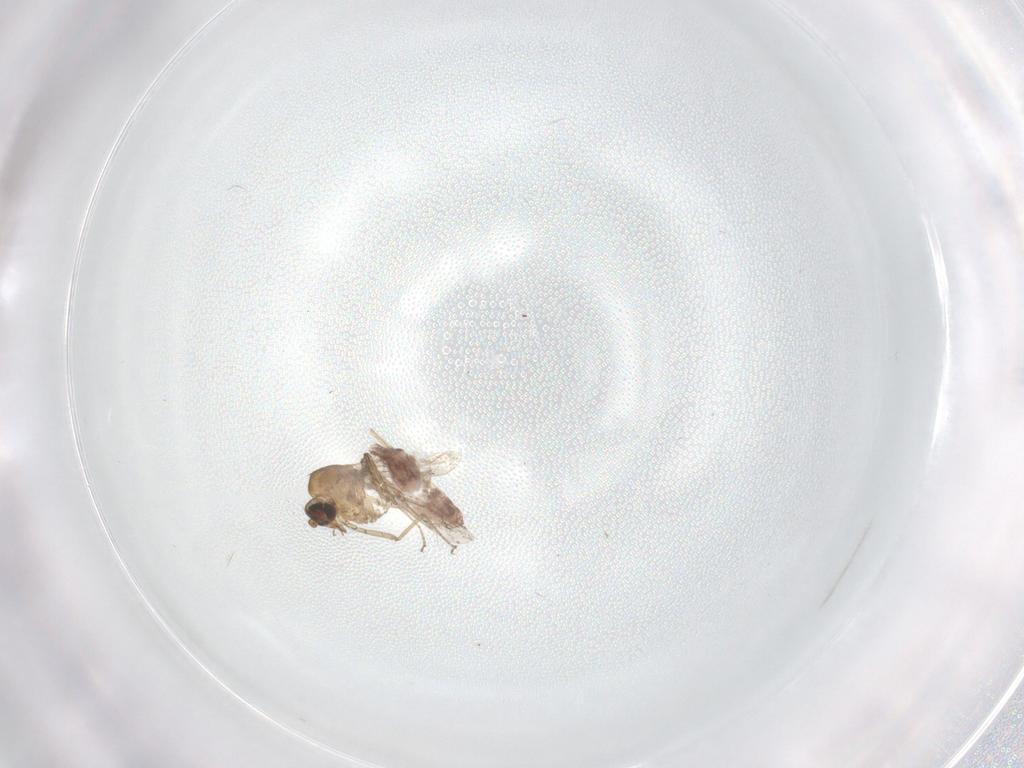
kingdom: Animalia
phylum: Arthropoda
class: Insecta
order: Diptera
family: Chironomidae
